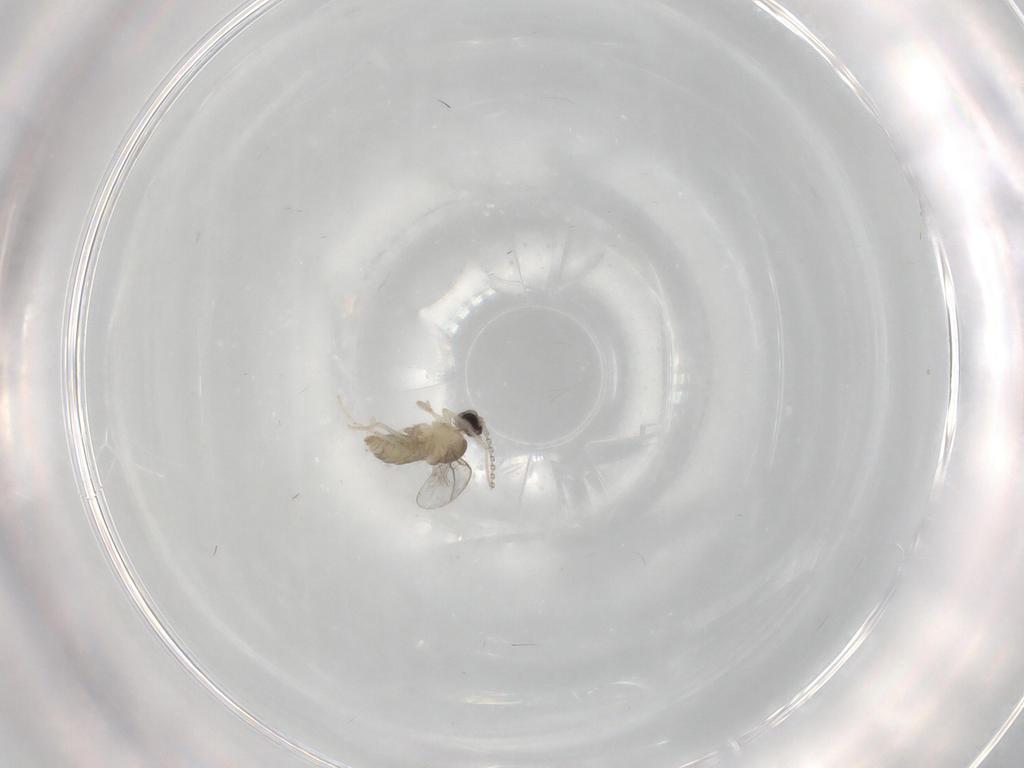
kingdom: Animalia
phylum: Arthropoda
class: Insecta
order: Diptera
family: Cecidomyiidae
